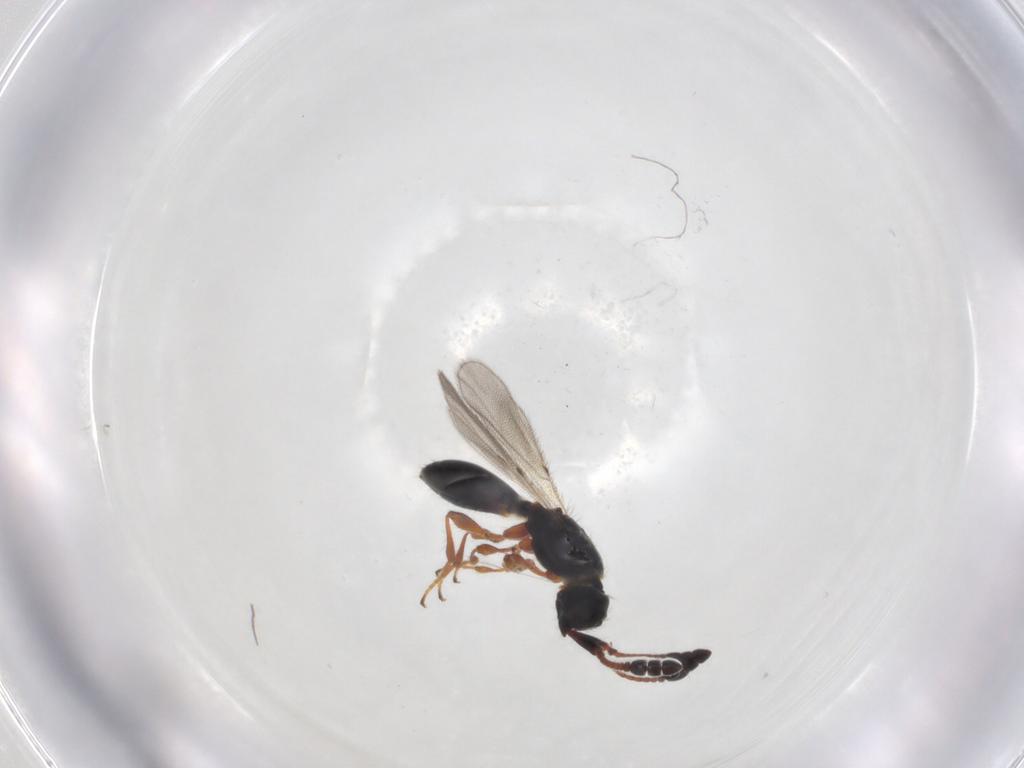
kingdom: Animalia
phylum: Arthropoda
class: Insecta
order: Hymenoptera
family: Diapriidae
